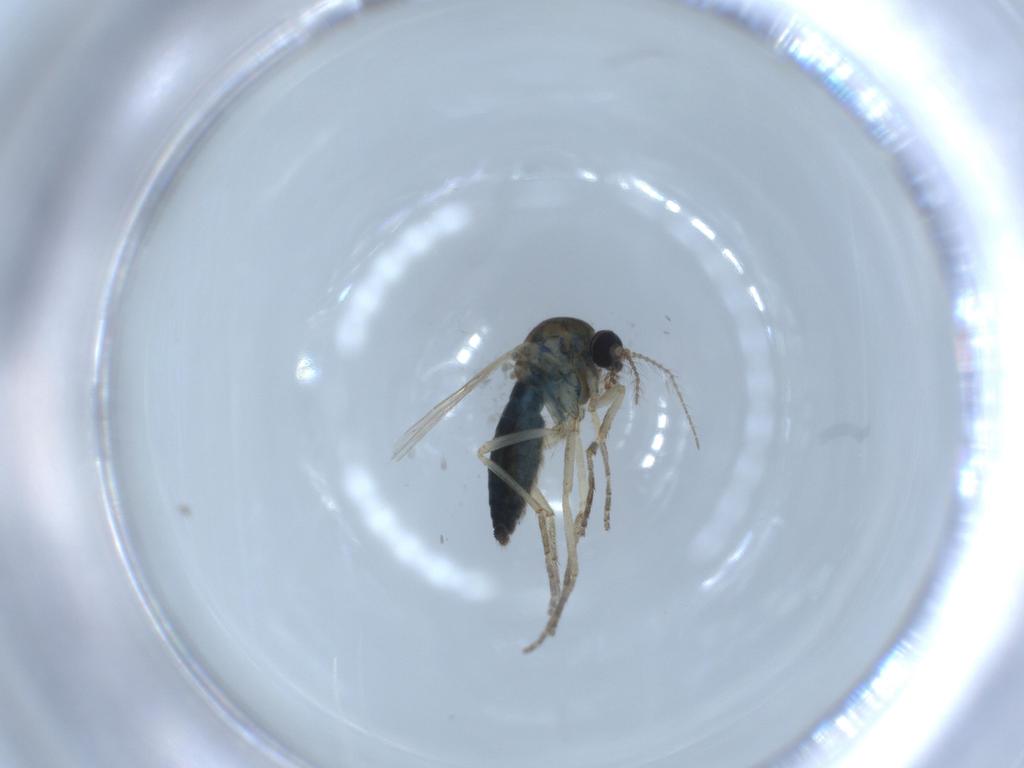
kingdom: Animalia
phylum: Arthropoda
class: Insecta
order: Diptera
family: Ceratopogonidae
